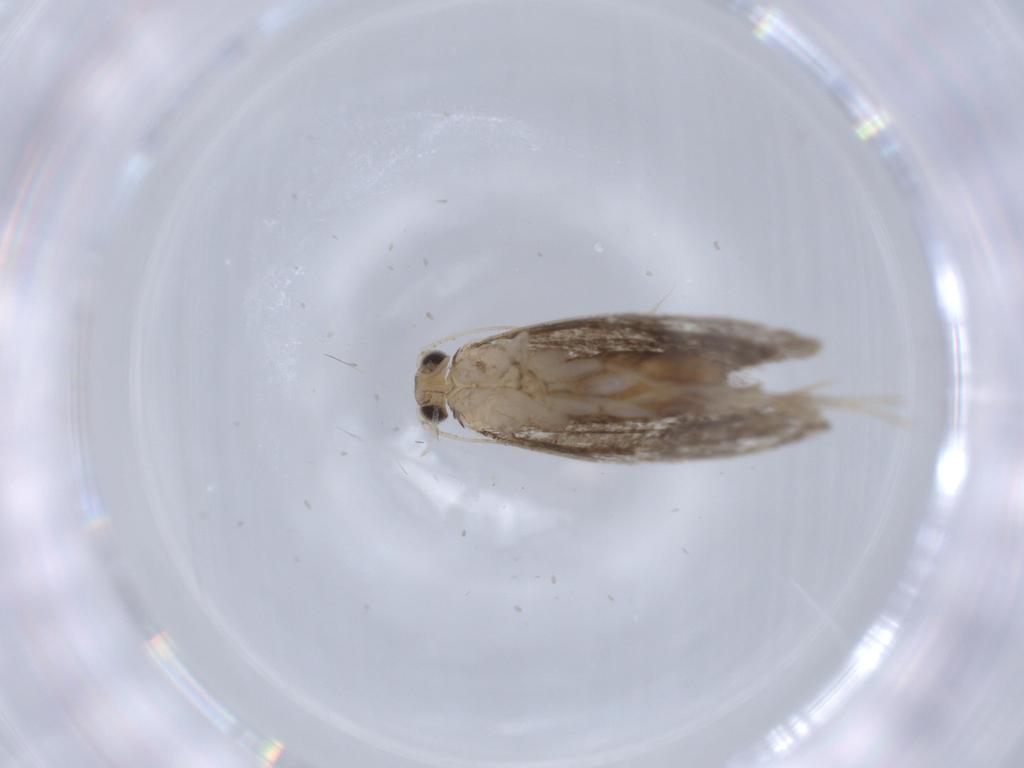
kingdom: Animalia
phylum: Arthropoda
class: Insecta
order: Lepidoptera
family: Tineidae
